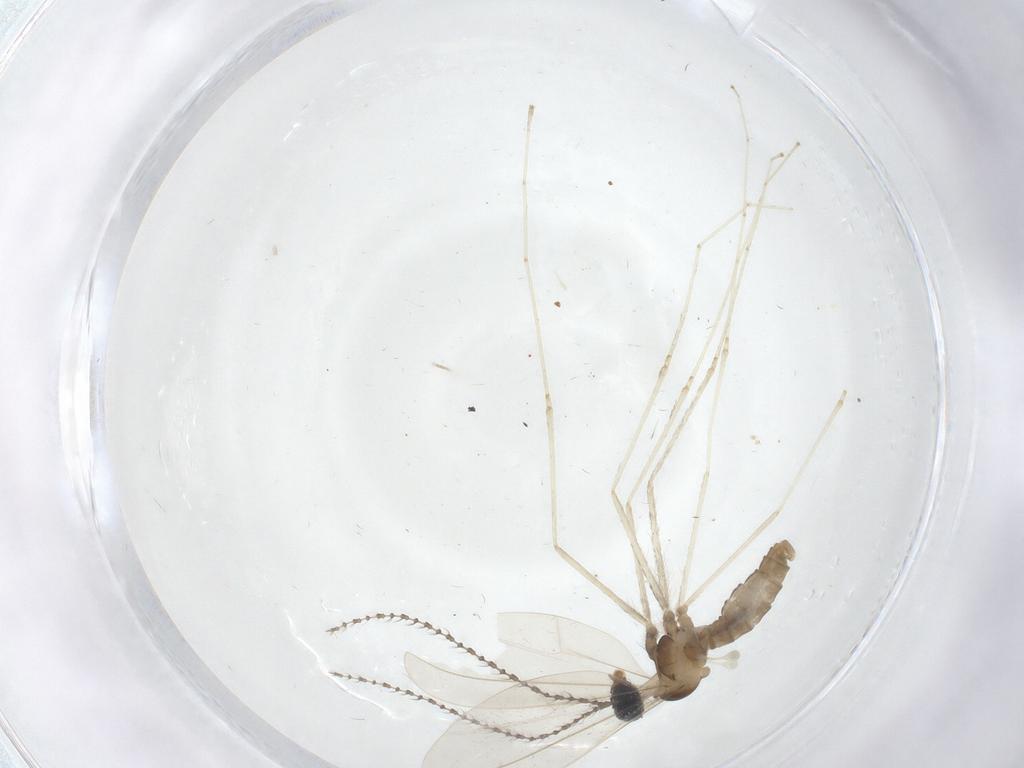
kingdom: Animalia
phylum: Arthropoda
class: Insecta
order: Diptera
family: Cecidomyiidae
